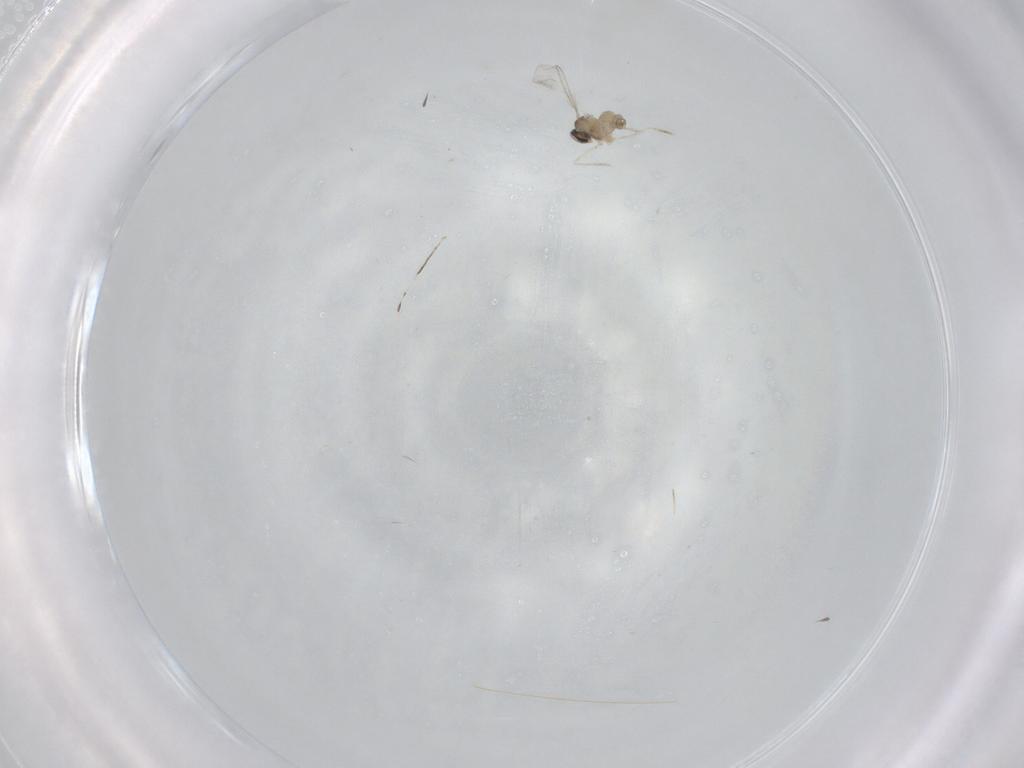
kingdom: Animalia
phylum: Arthropoda
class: Insecta
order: Diptera
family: Cecidomyiidae
